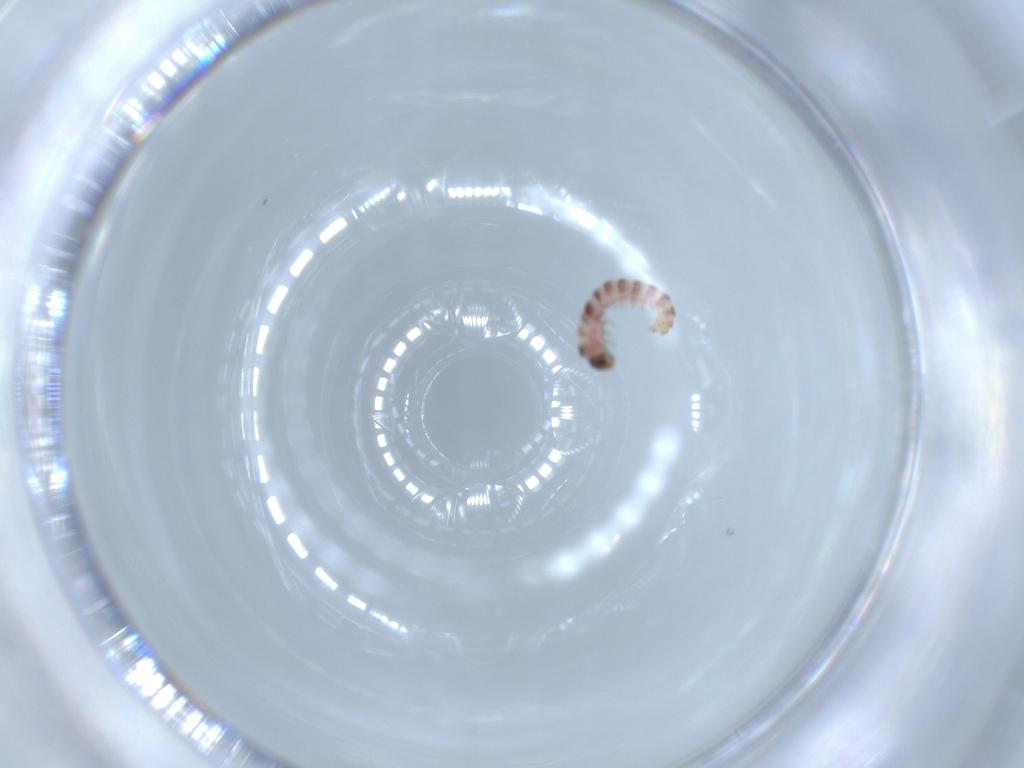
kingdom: Animalia
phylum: Arthropoda
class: Insecta
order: Lepidoptera
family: Scythrididae
